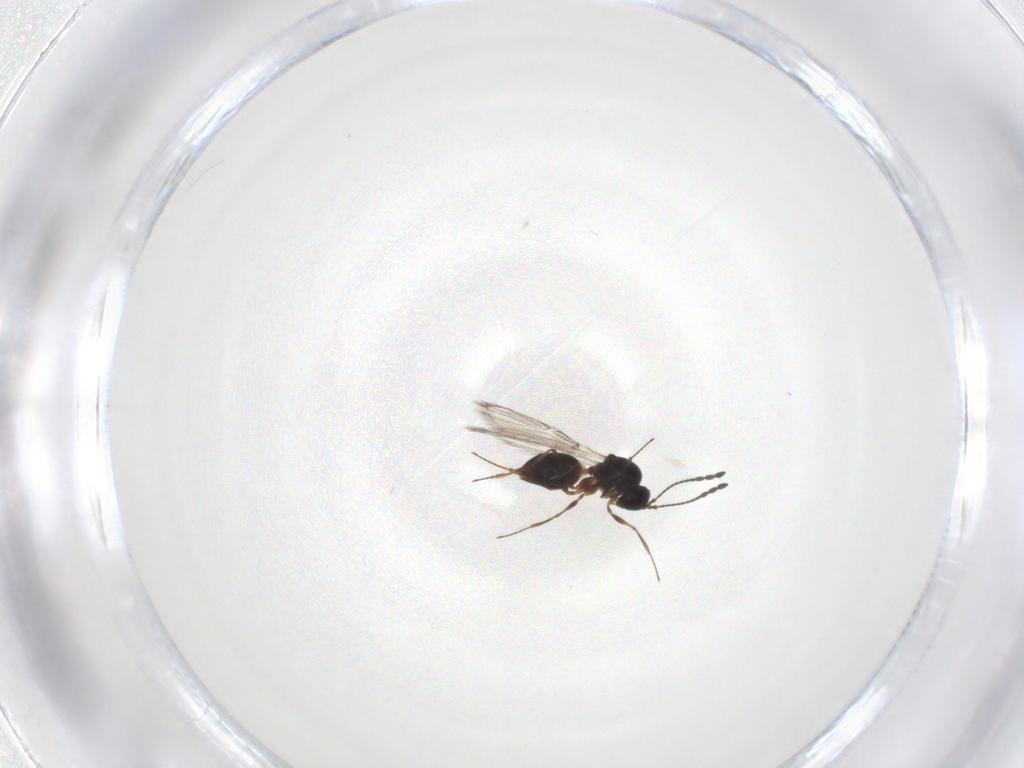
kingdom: Animalia
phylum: Arthropoda
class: Insecta
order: Hymenoptera
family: Figitidae
